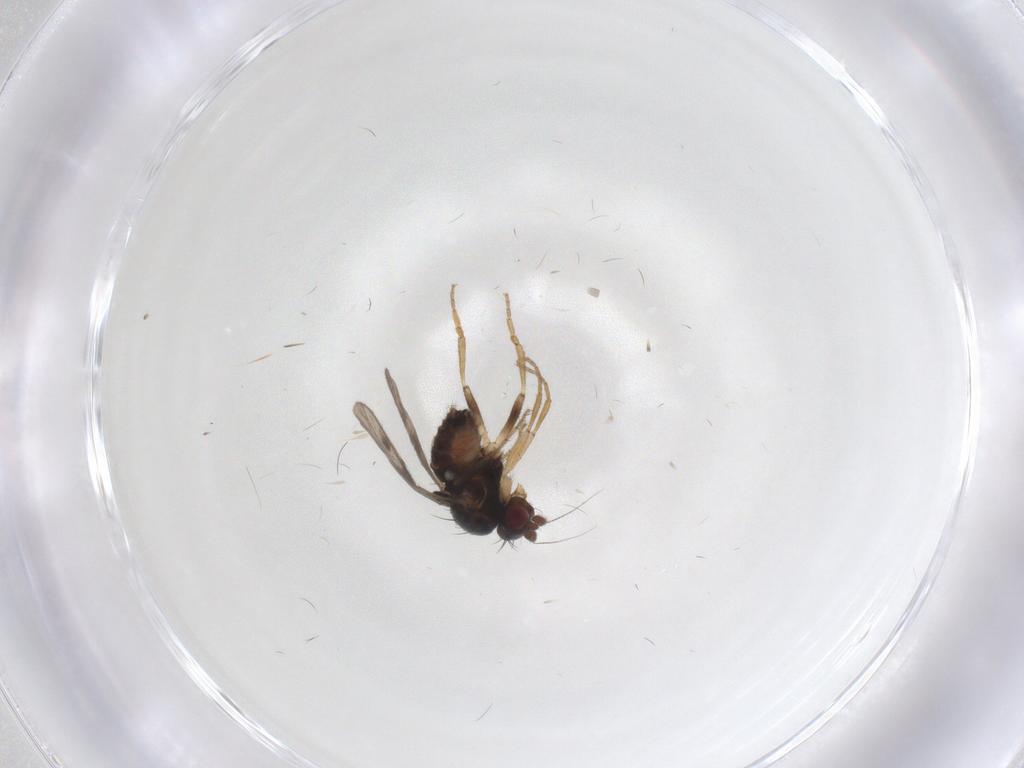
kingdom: Animalia
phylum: Arthropoda
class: Insecta
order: Diptera
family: Sphaeroceridae
